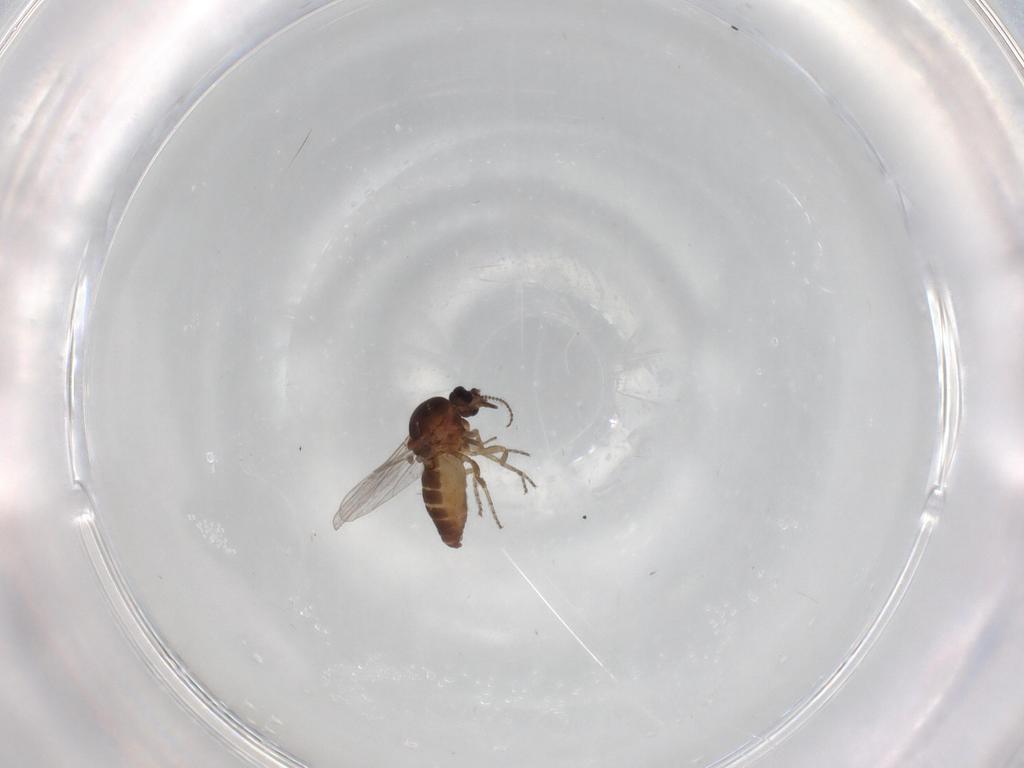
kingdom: Animalia
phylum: Arthropoda
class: Insecta
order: Diptera
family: Ceratopogonidae
